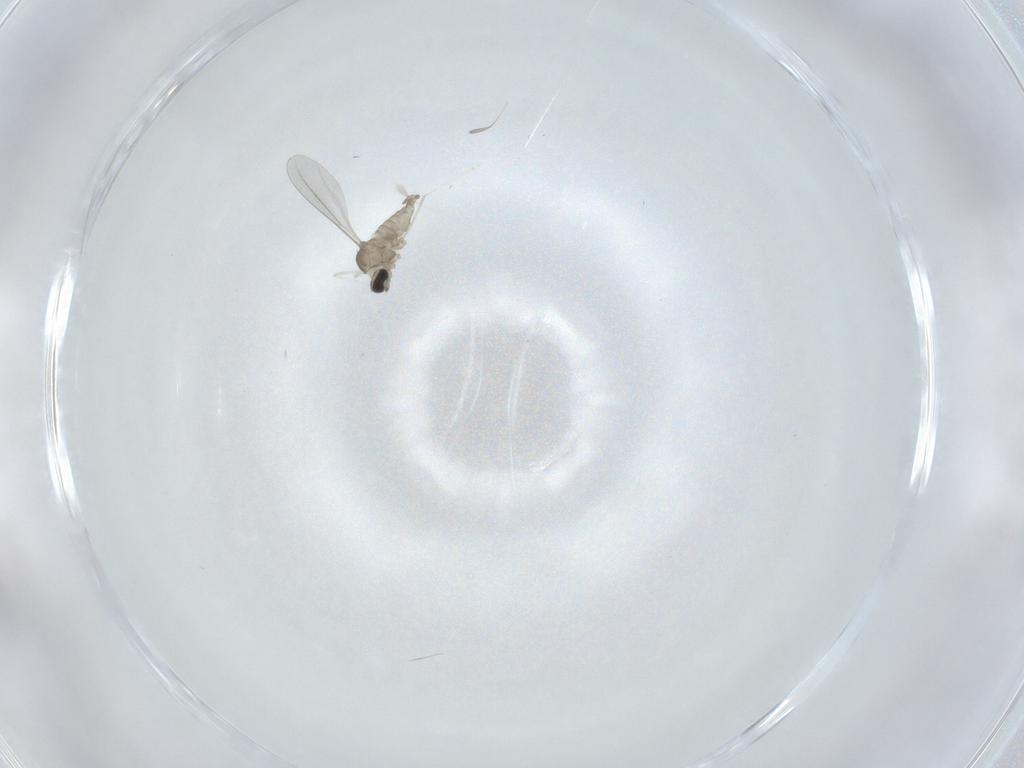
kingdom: Animalia
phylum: Arthropoda
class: Insecta
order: Diptera
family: Cecidomyiidae
